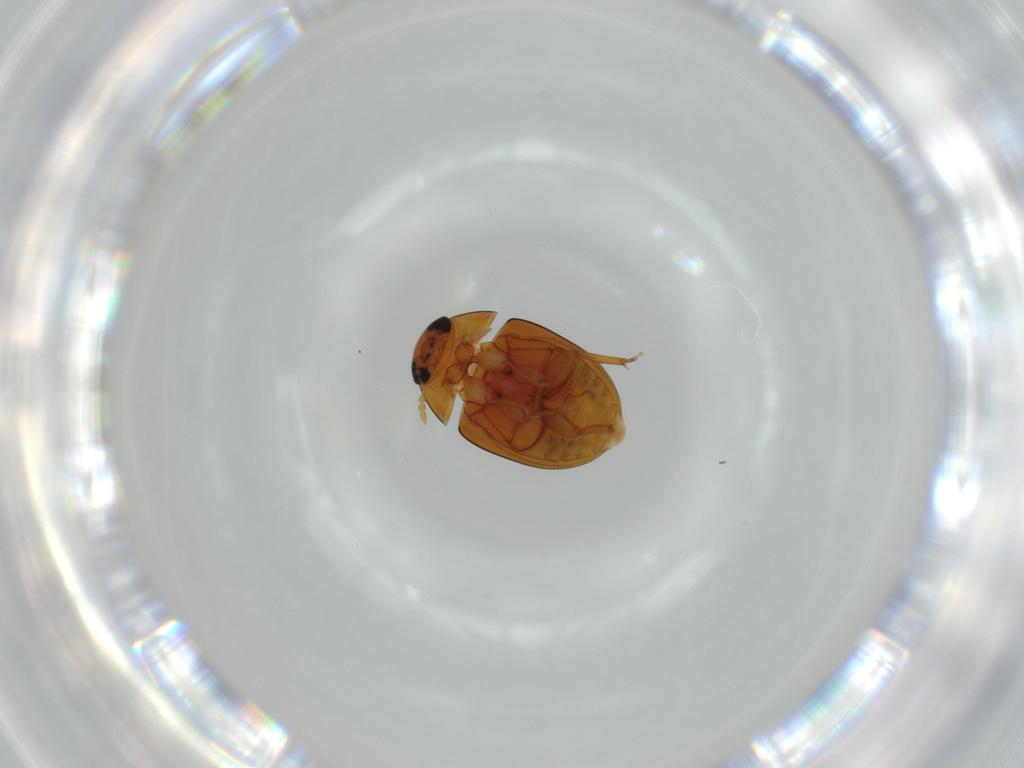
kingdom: Animalia
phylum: Arthropoda
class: Insecta
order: Coleoptera
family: Phalacridae
